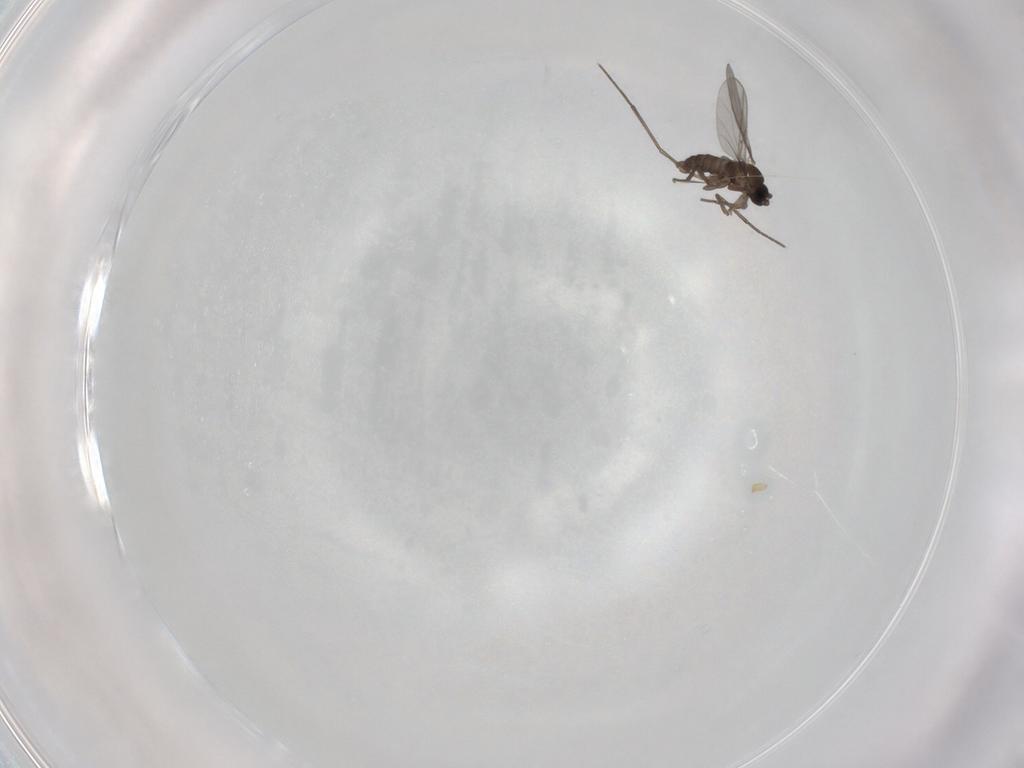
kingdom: Animalia
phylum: Arthropoda
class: Insecta
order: Diptera
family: Sciaridae
